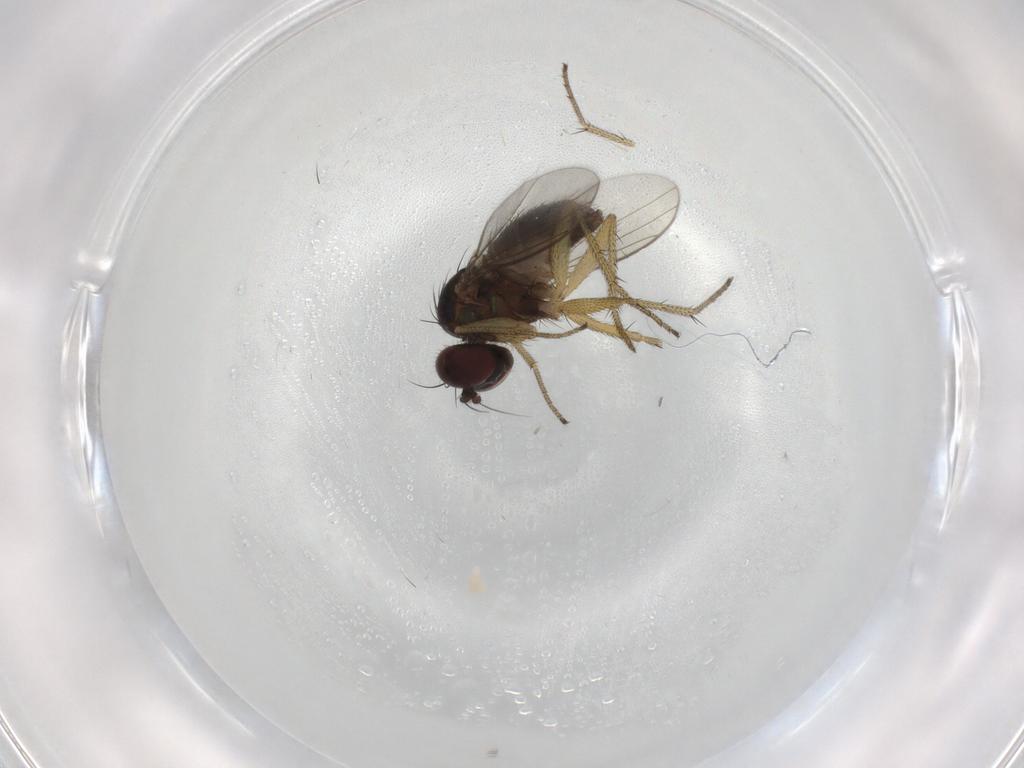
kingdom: Animalia
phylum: Arthropoda
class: Insecta
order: Diptera
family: Chironomidae
